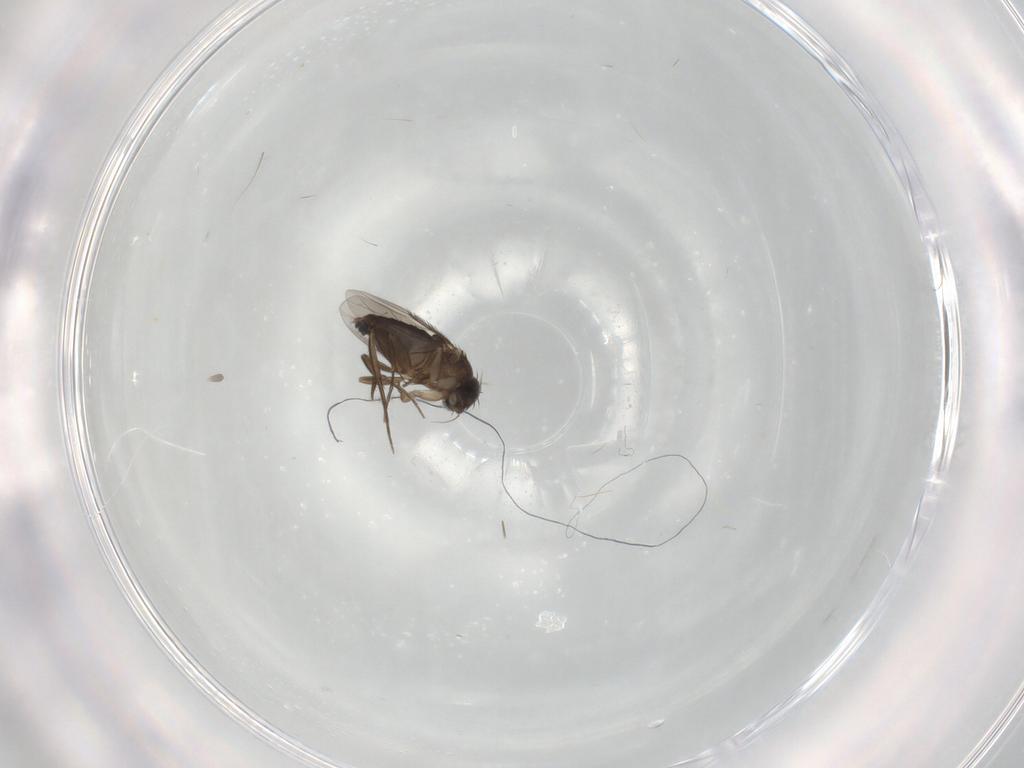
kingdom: Animalia
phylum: Arthropoda
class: Insecta
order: Diptera
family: Phoridae
